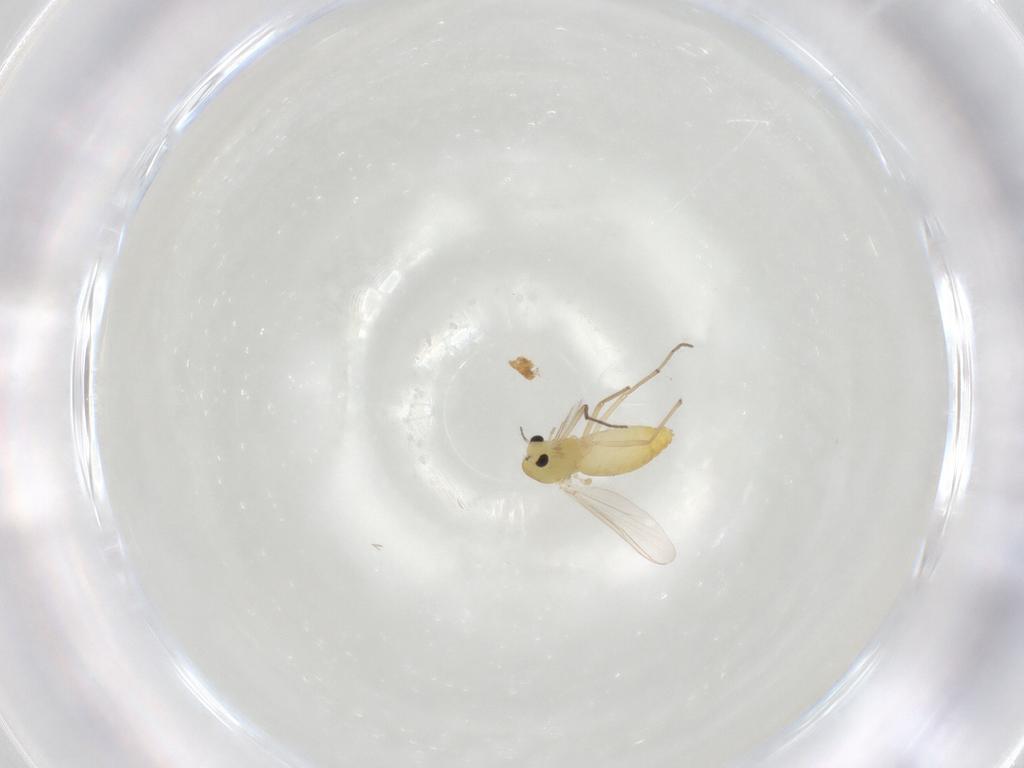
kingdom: Animalia
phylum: Arthropoda
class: Insecta
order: Diptera
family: Chironomidae
